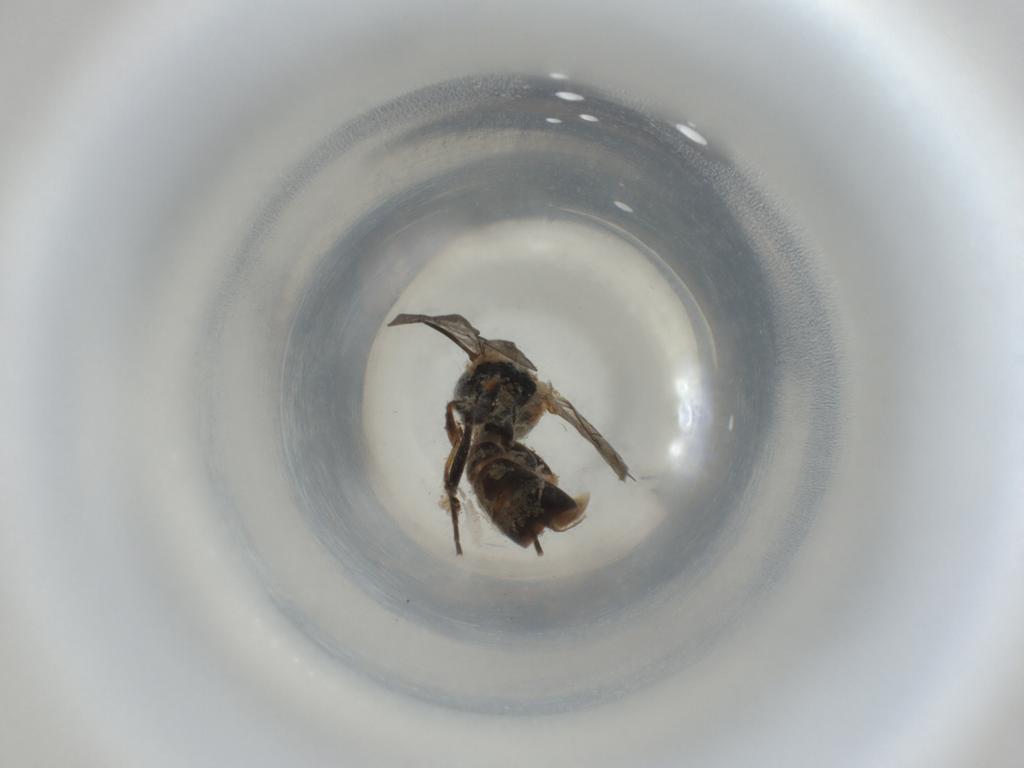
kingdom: Animalia
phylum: Arthropoda
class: Insecta
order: Hymenoptera
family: Crabronidae
